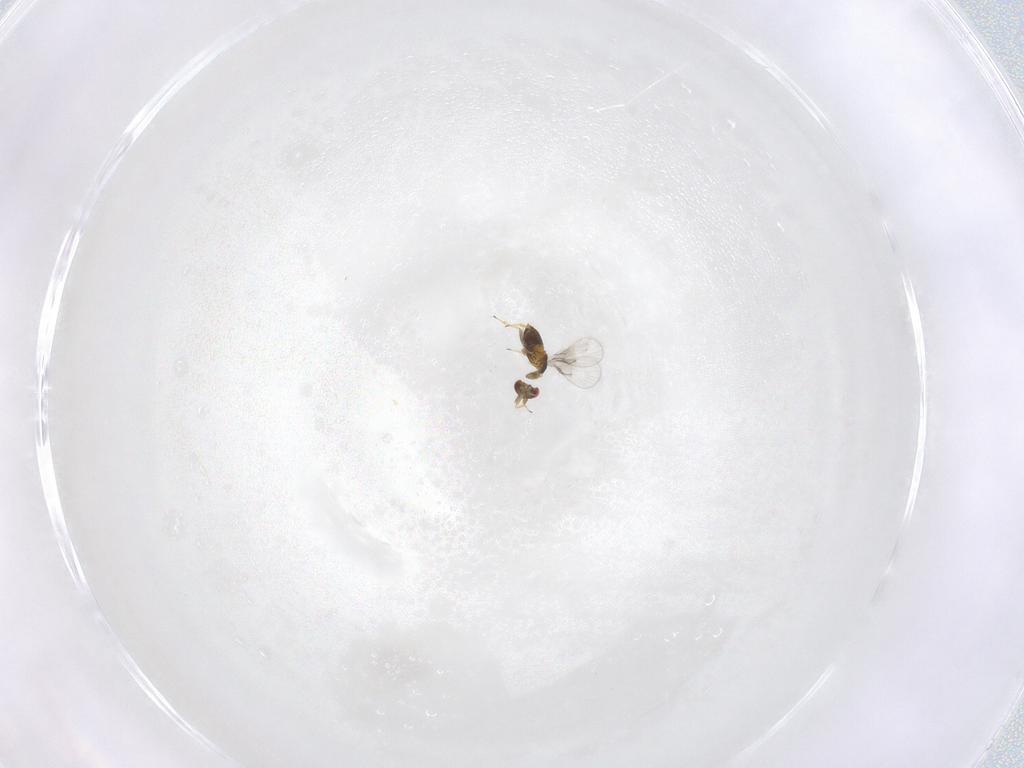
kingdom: Animalia
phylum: Arthropoda
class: Insecta
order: Hymenoptera
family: Trichogrammatidae
